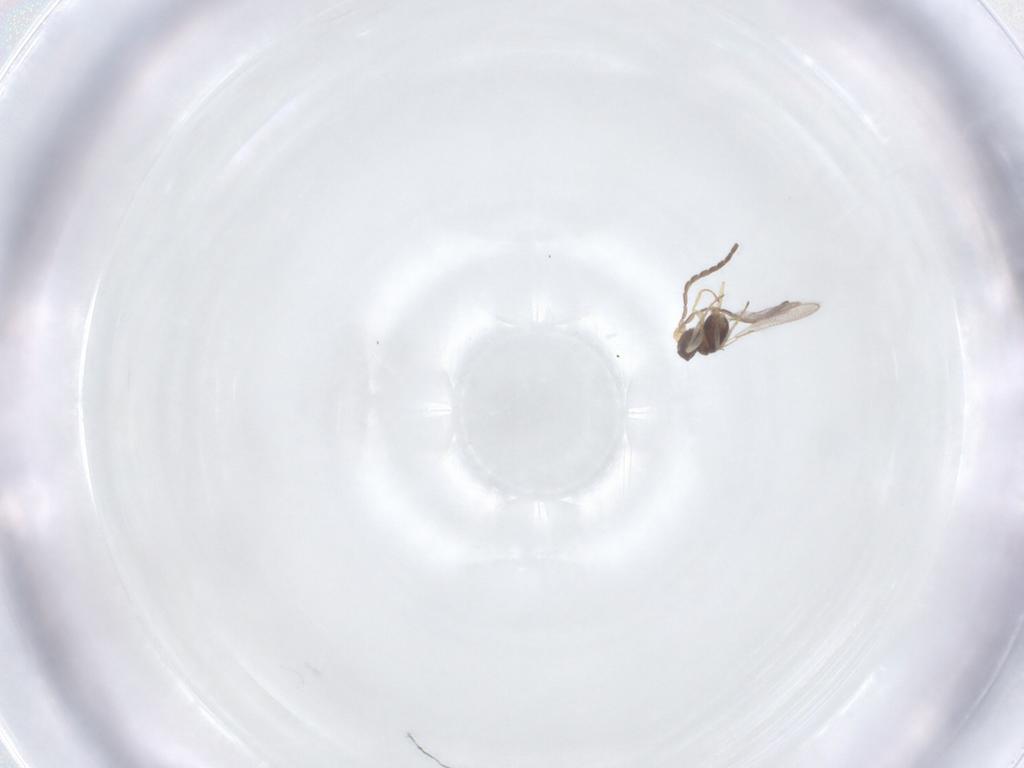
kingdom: Animalia
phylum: Arthropoda
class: Insecta
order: Hymenoptera
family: Mymaridae
